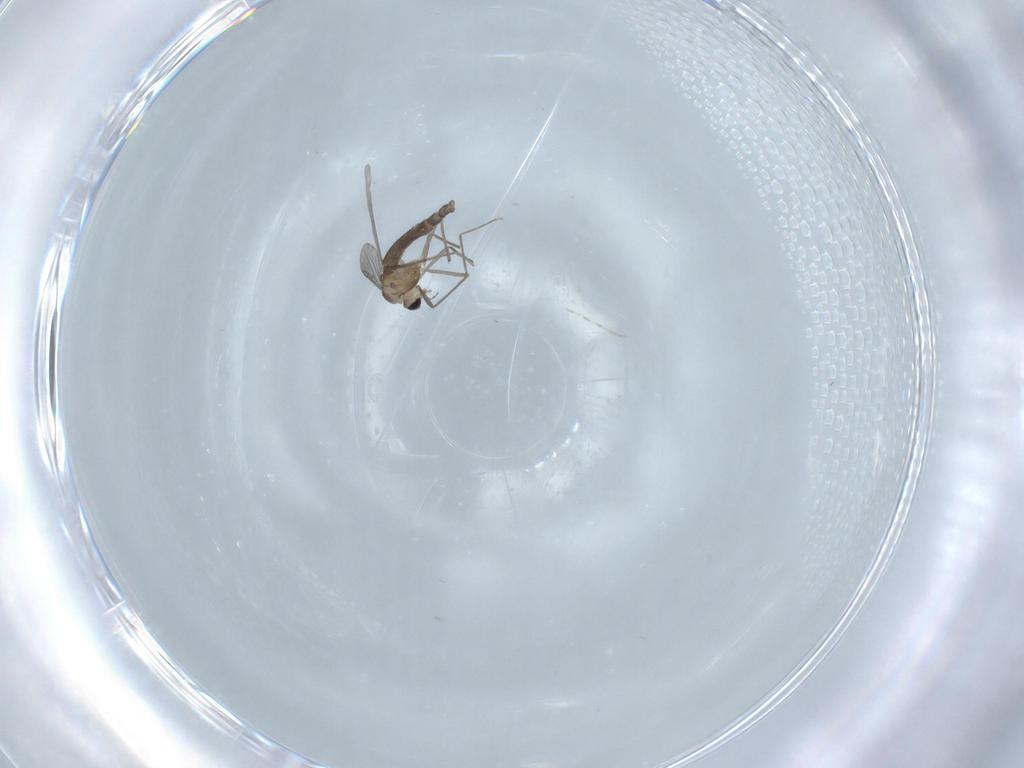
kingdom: Animalia
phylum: Arthropoda
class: Insecta
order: Diptera
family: Chironomidae
